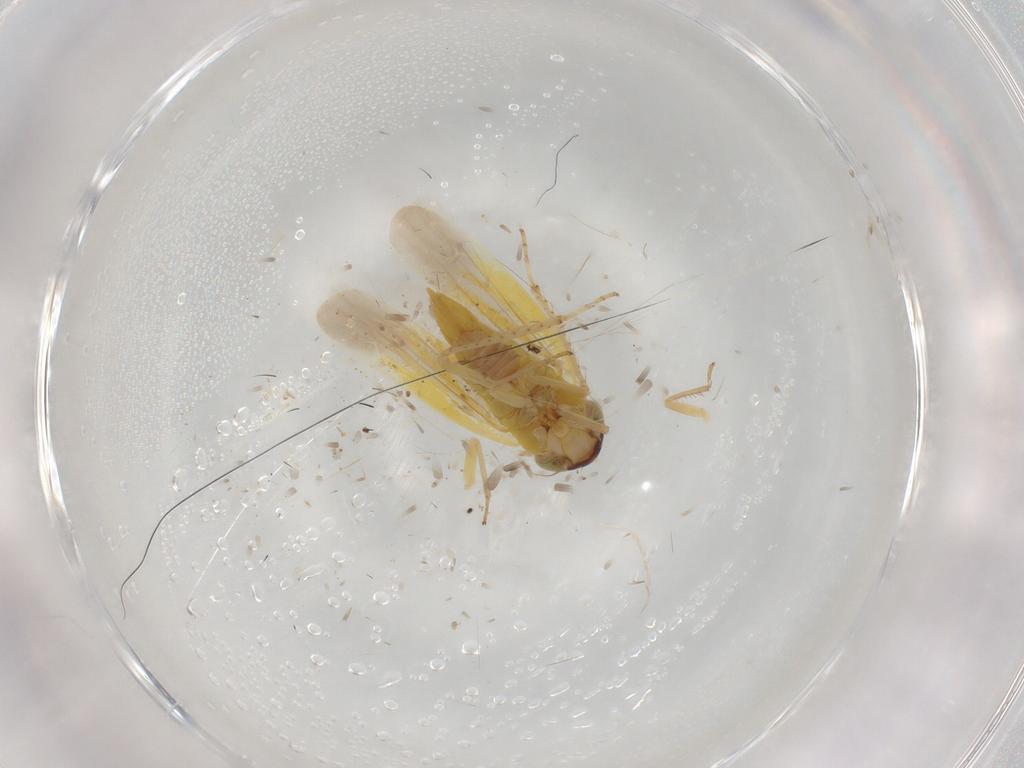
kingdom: Animalia
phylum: Arthropoda
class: Insecta
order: Hemiptera
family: Cicadellidae
